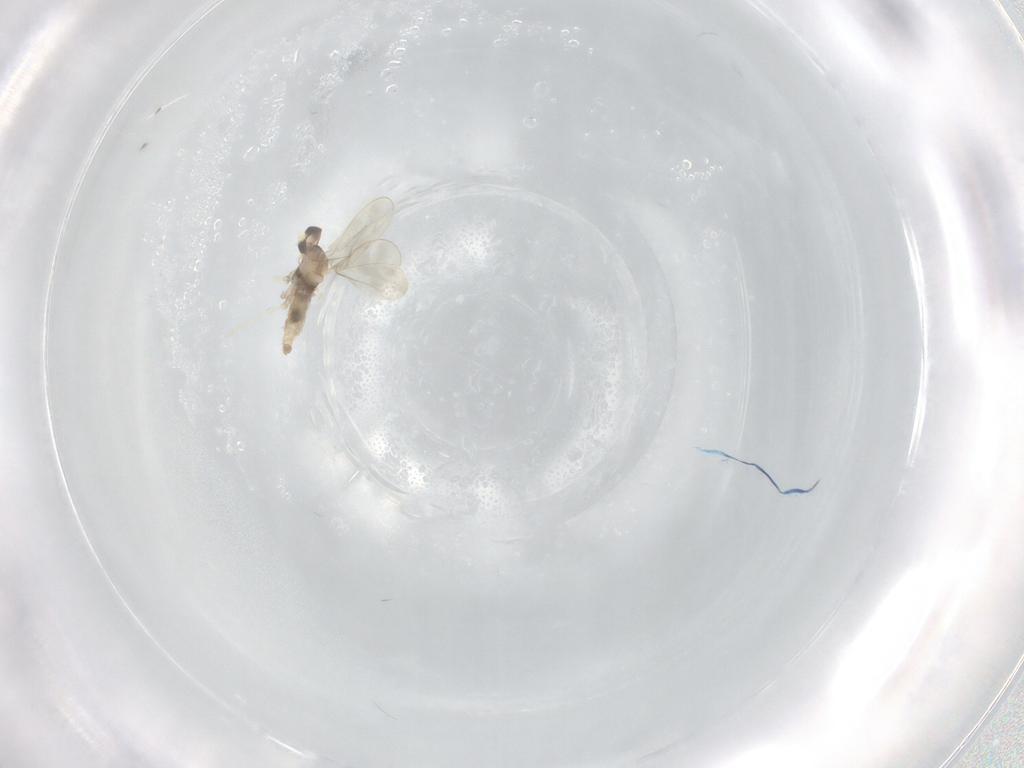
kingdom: Animalia
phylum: Arthropoda
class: Insecta
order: Diptera
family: Cecidomyiidae
